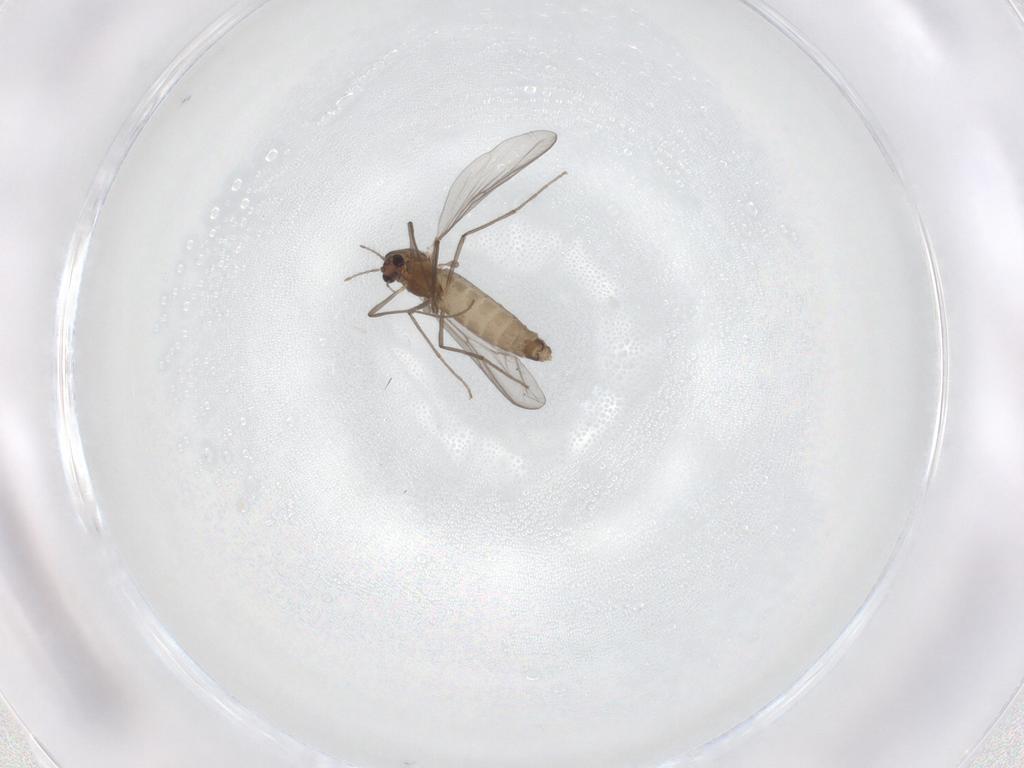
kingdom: Animalia
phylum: Arthropoda
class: Insecta
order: Diptera
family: Chironomidae
